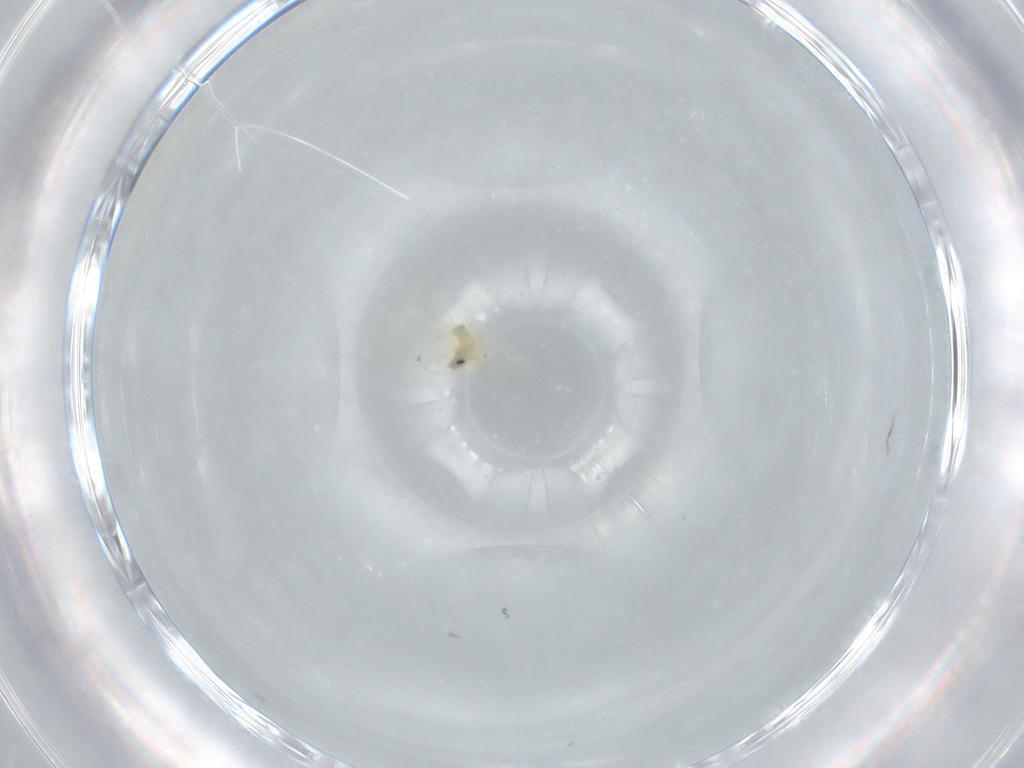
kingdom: Animalia
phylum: Arthropoda
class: Insecta
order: Hemiptera
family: Aleyrodidae
